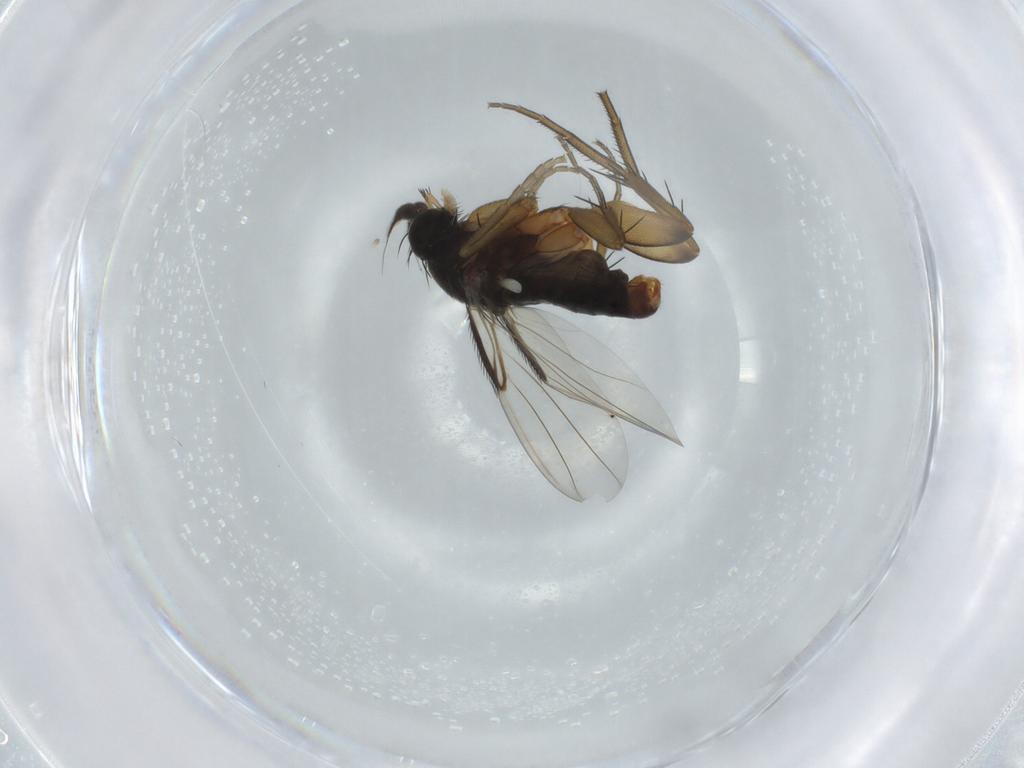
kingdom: Animalia
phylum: Arthropoda
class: Insecta
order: Diptera
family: Phoridae
